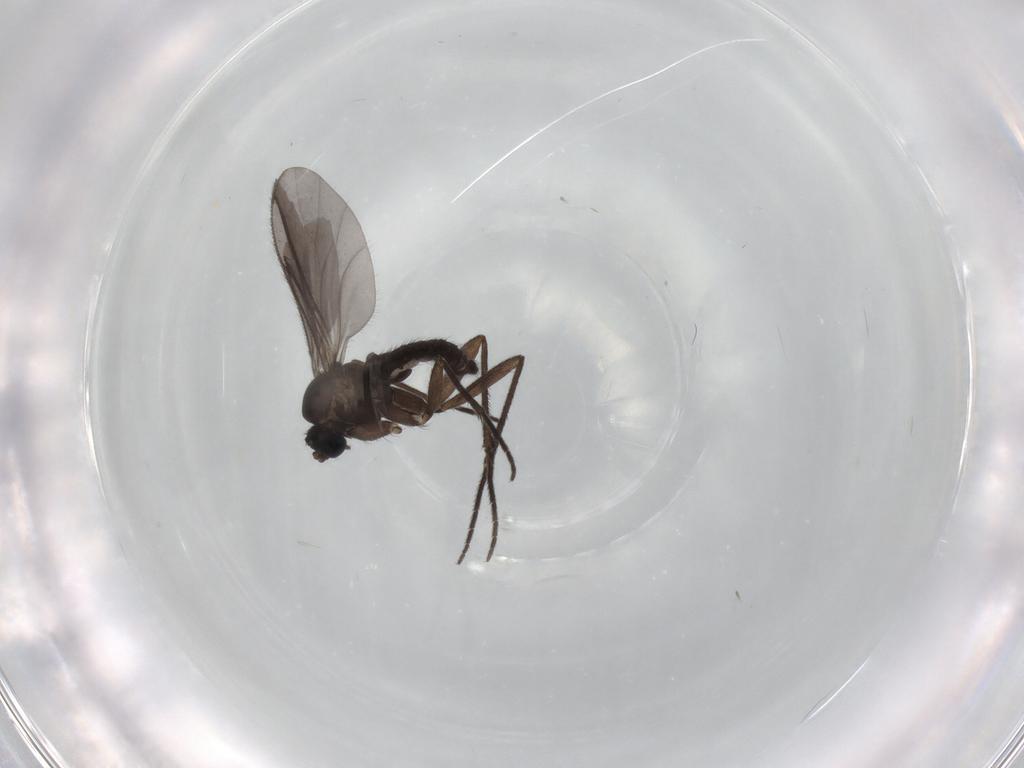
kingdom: Animalia
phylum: Arthropoda
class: Insecta
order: Diptera
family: Sciaridae
